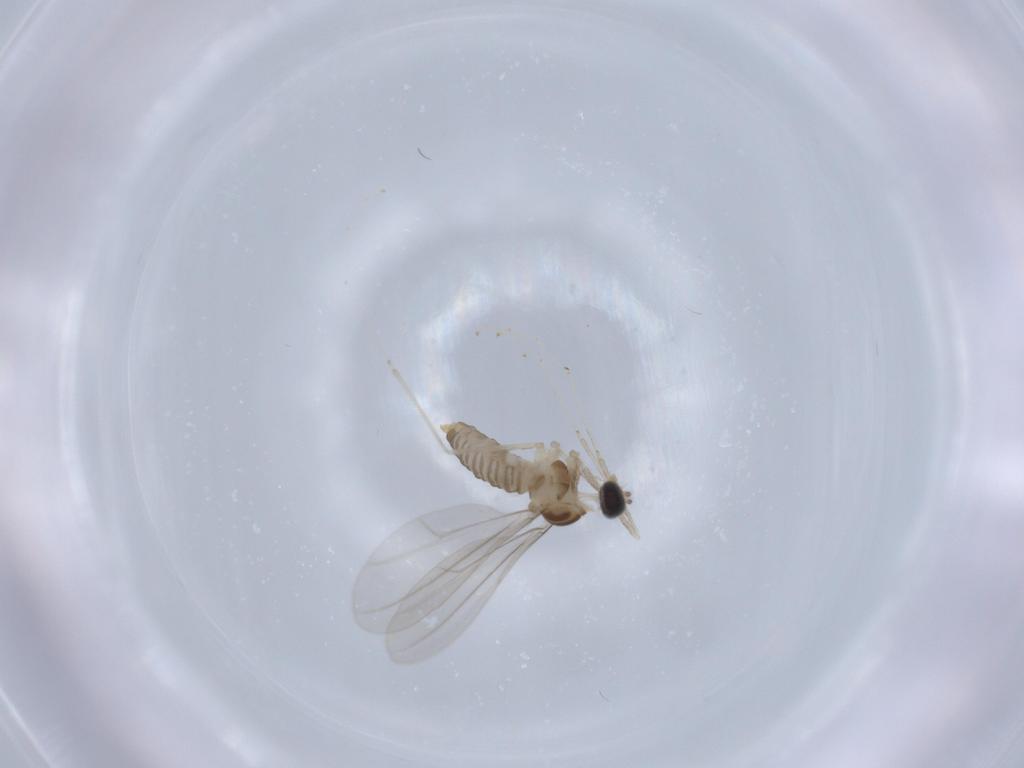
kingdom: Animalia
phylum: Arthropoda
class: Insecta
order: Diptera
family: Cecidomyiidae
